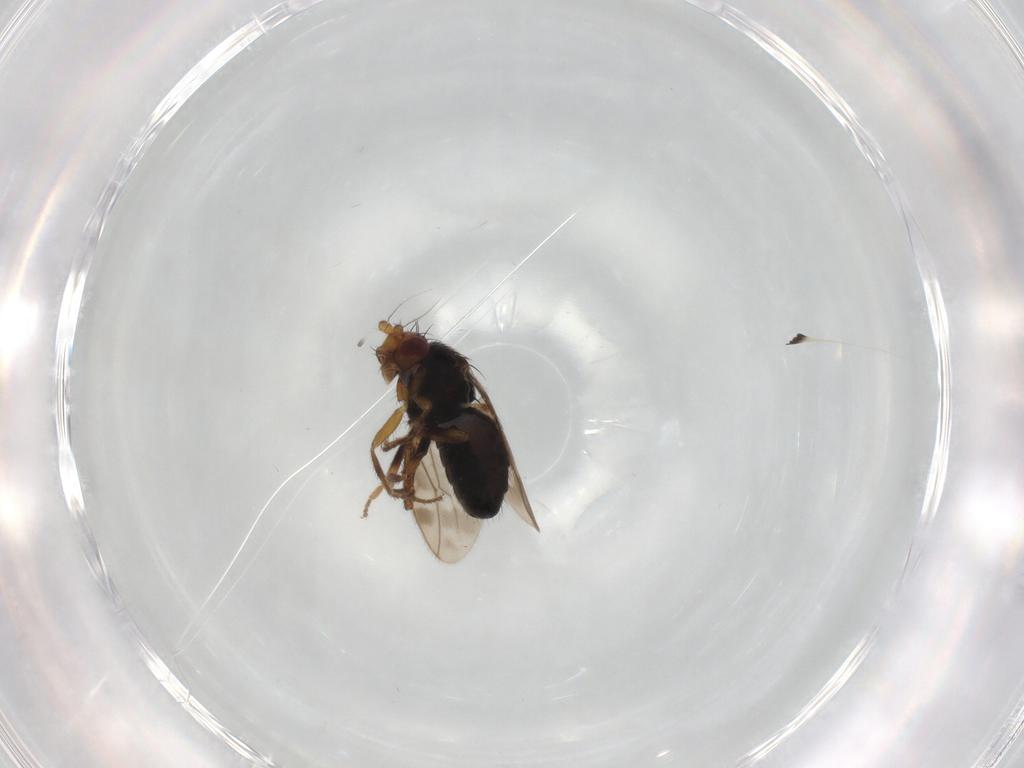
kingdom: Animalia
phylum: Arthropoda
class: Insecta
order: Diptera
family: Sphaeroceridae
